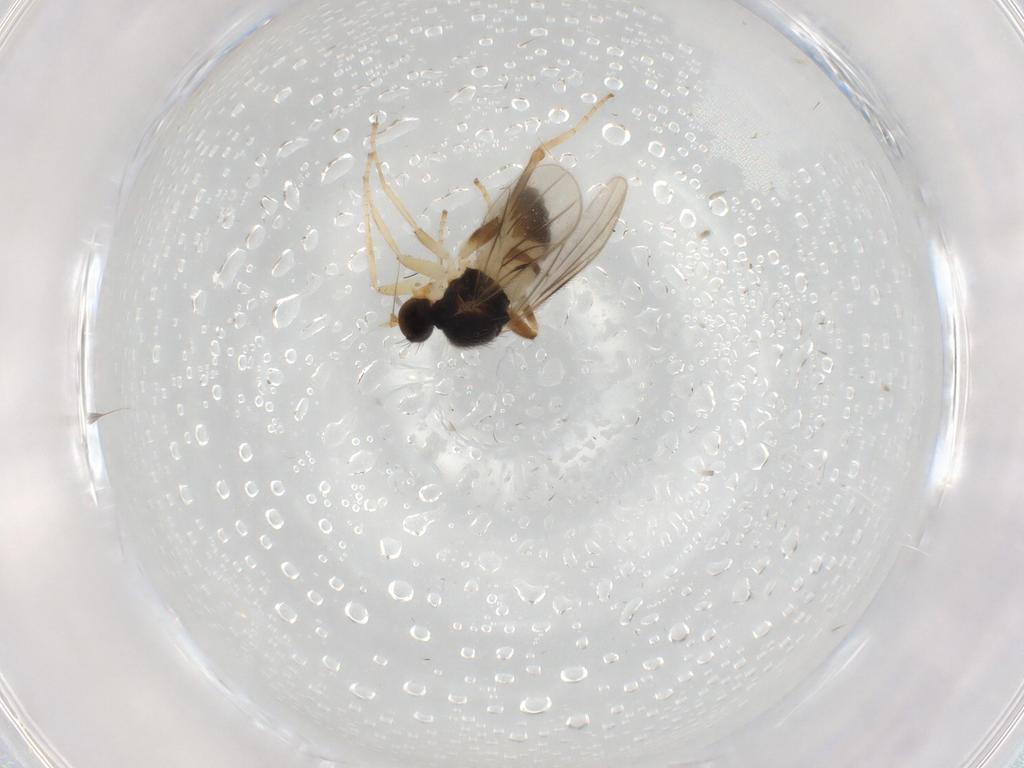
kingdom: Animalia
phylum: Arthropoda
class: Insecta
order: Diptera
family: Hybotidae
